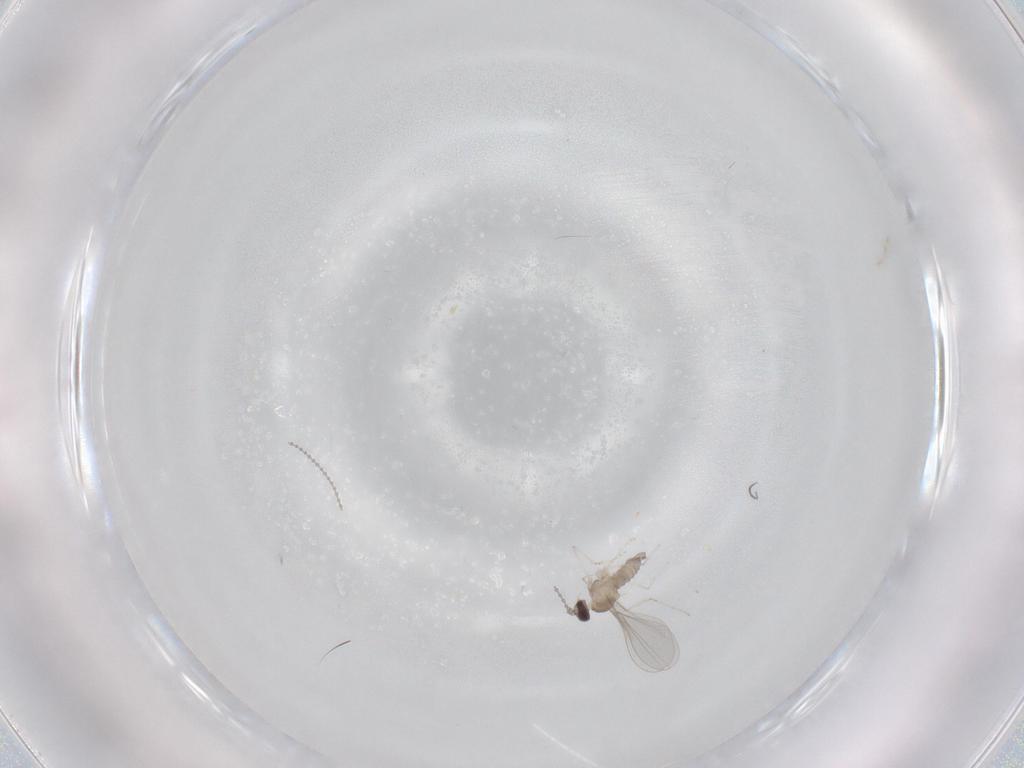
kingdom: Animalia
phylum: Arthropoda
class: Insecta
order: Diptera
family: Cecidomyiidae
